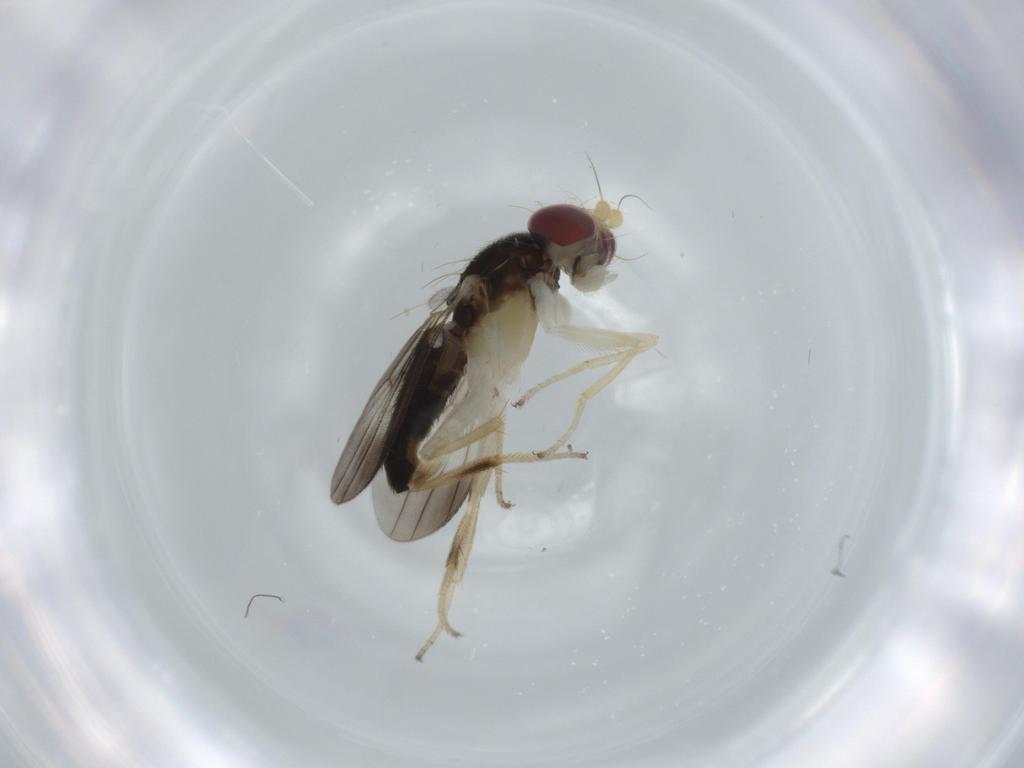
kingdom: Animalia
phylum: Arthropoda
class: Insecta
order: Diptera
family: Clusiidae
